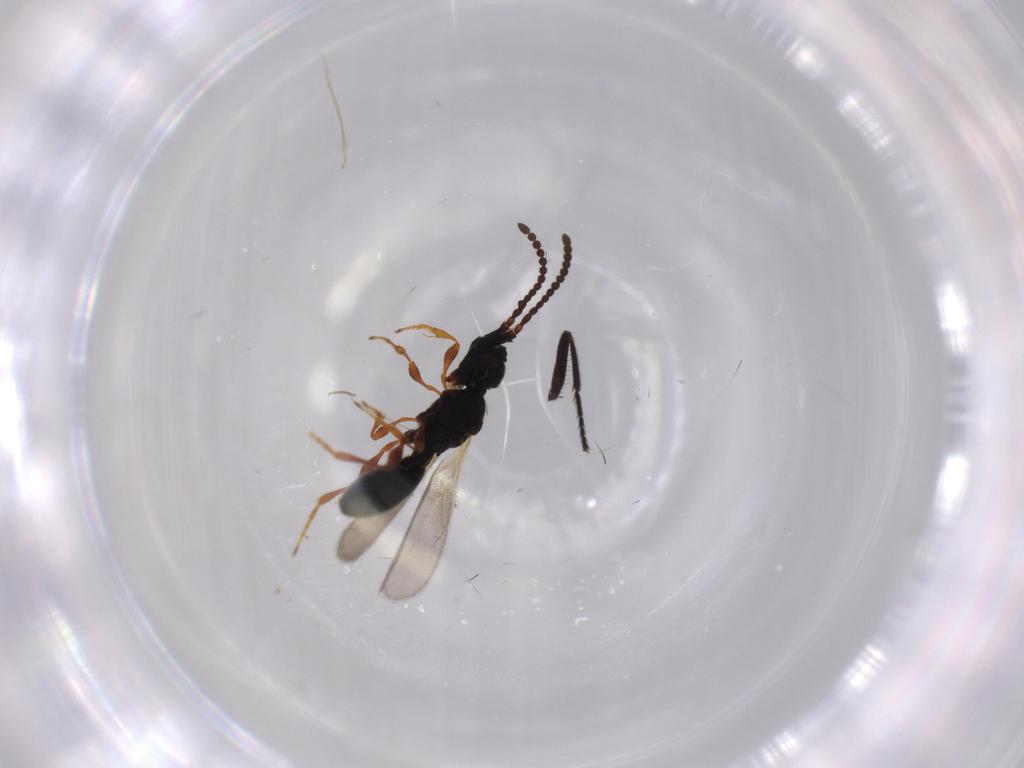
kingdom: Animalia
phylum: Arthropoda
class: Insecta
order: Hymenoptera
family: Diapriidae
